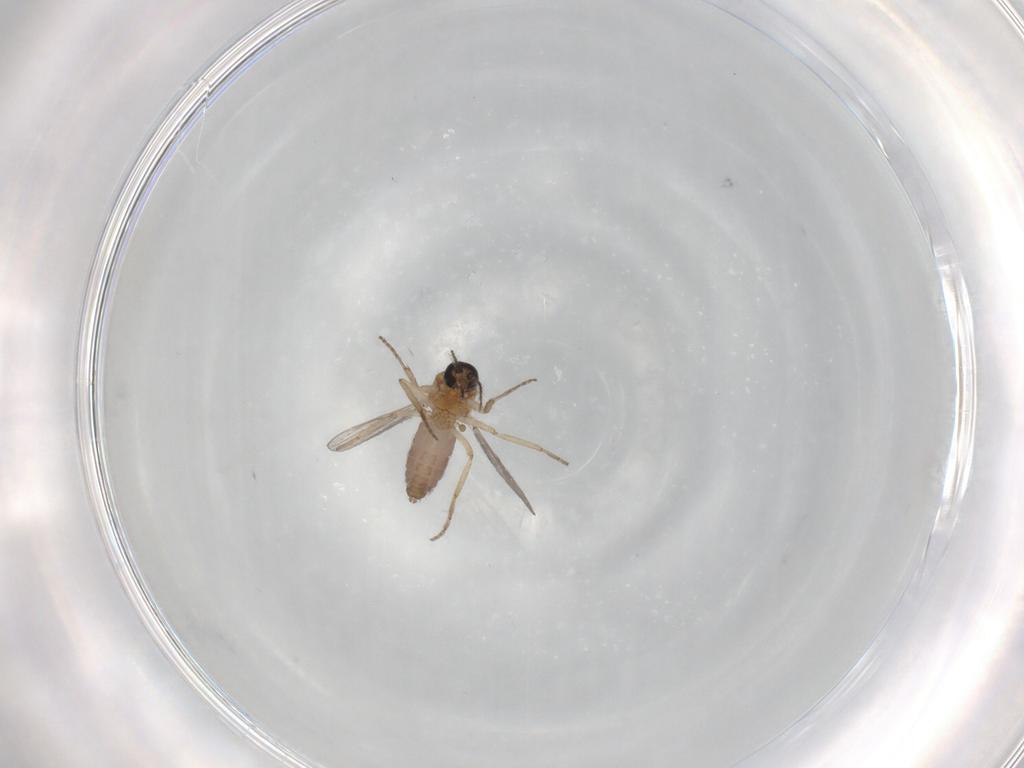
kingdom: Animalia
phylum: Arthropoda
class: Insecta
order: Diptera
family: Ceratopogonidae
